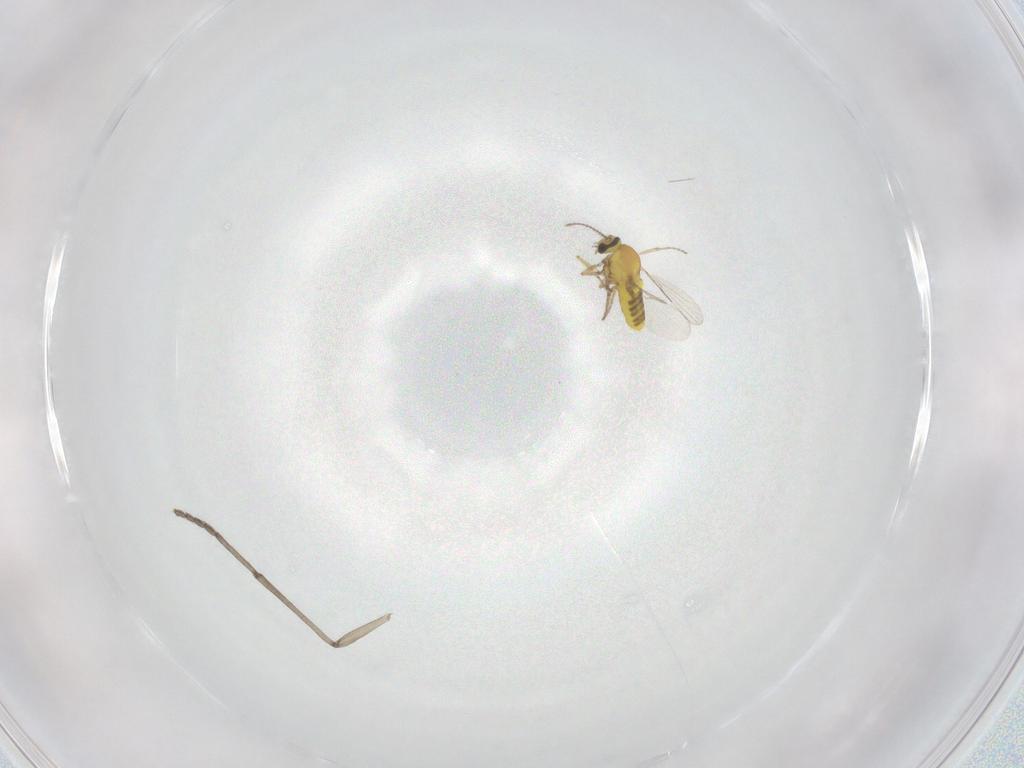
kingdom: Animalia
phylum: Arthropoda
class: Insecta
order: Diptera
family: Ceratopogonidae
